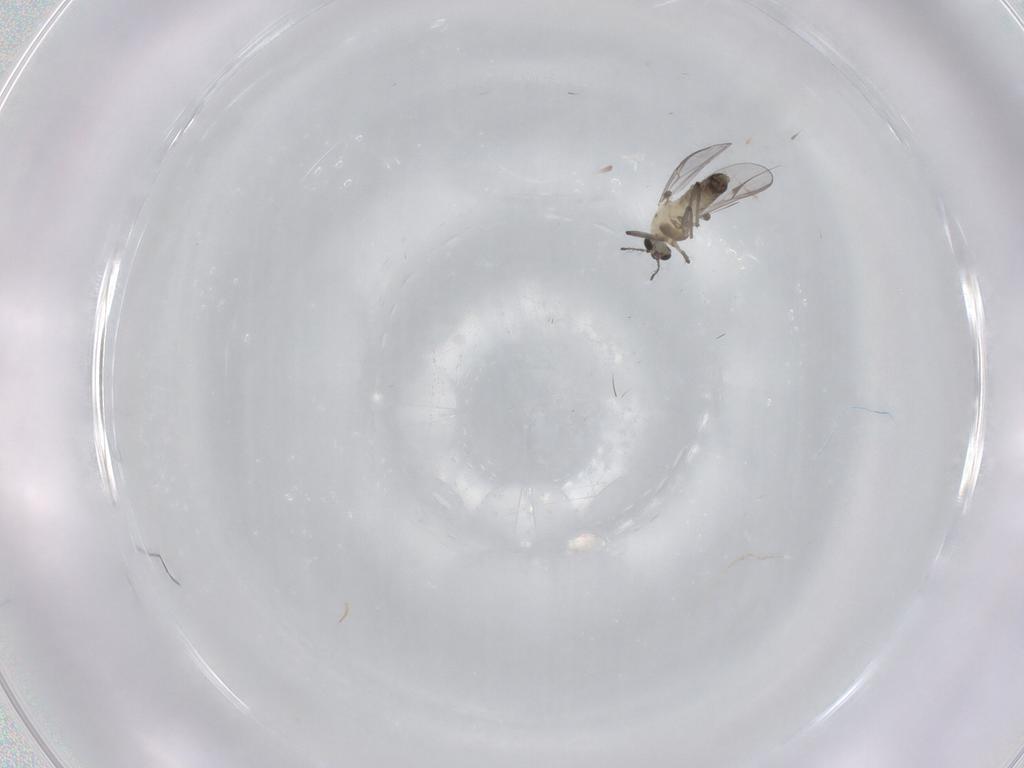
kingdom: Animalia
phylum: Arthropoda
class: Insecta
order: Diptera
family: Chironomidae
